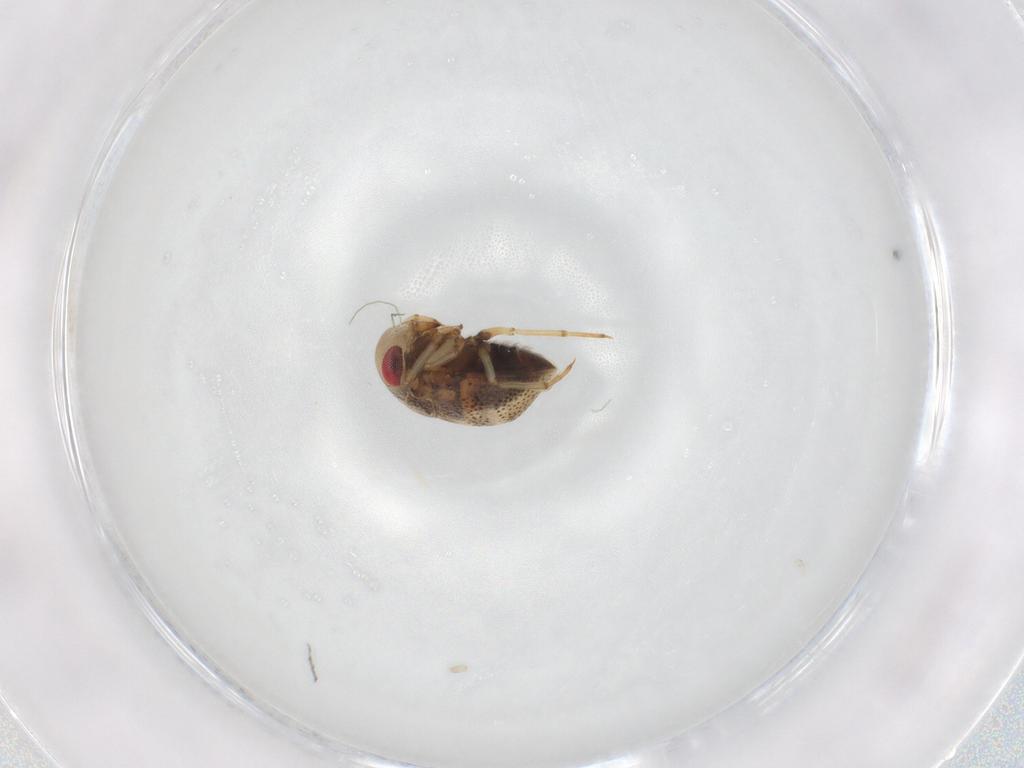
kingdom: Animalia
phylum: Arthropoda
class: Insecta
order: Hemiptera
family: Pleidae
